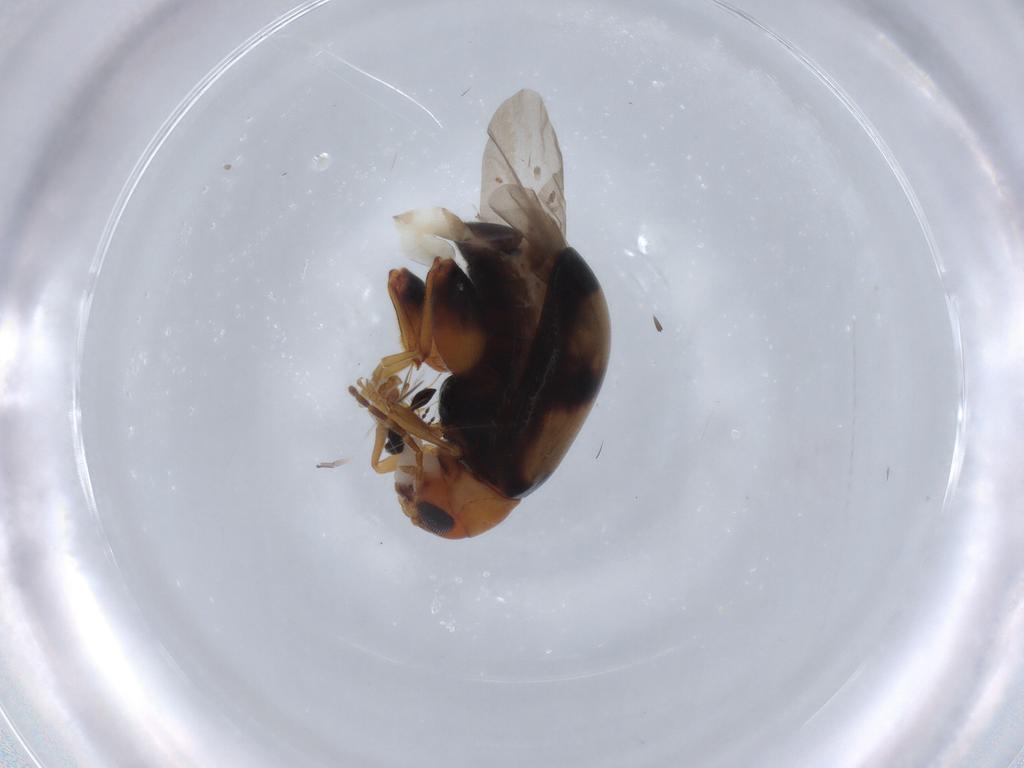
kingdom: Animalia
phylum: Arthropoda
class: Insecta
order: Coleoptera
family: Chrysomelidae
